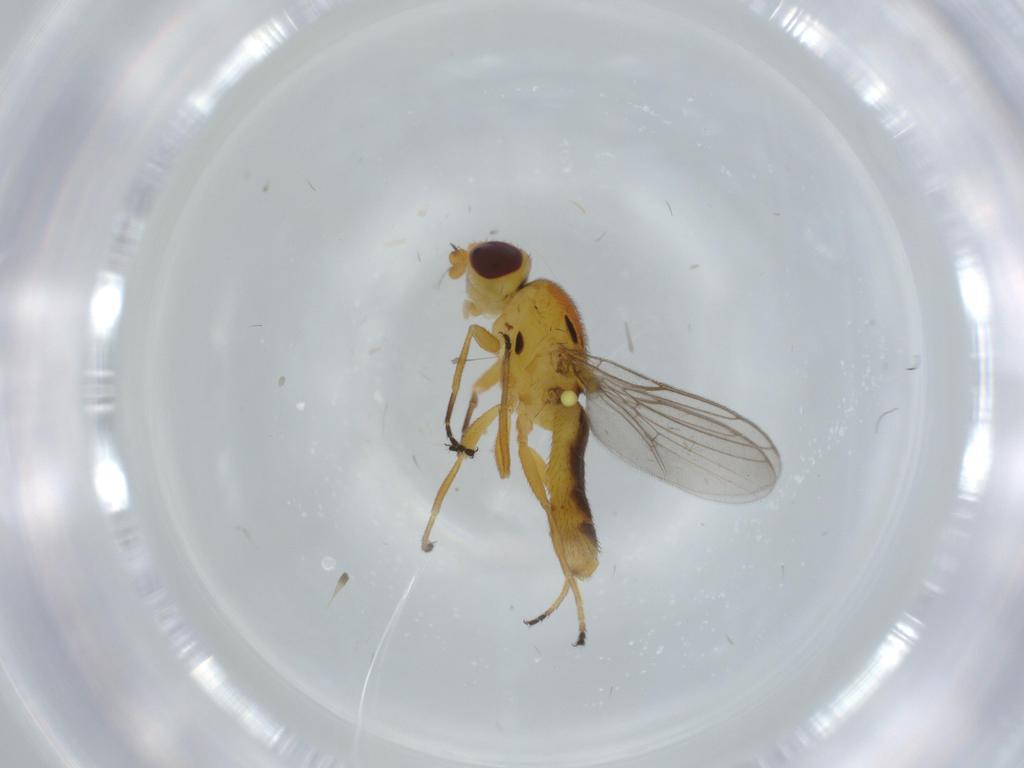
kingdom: Animalia
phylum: Arthropoda
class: Insecta
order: Diptera
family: Chloropidae
